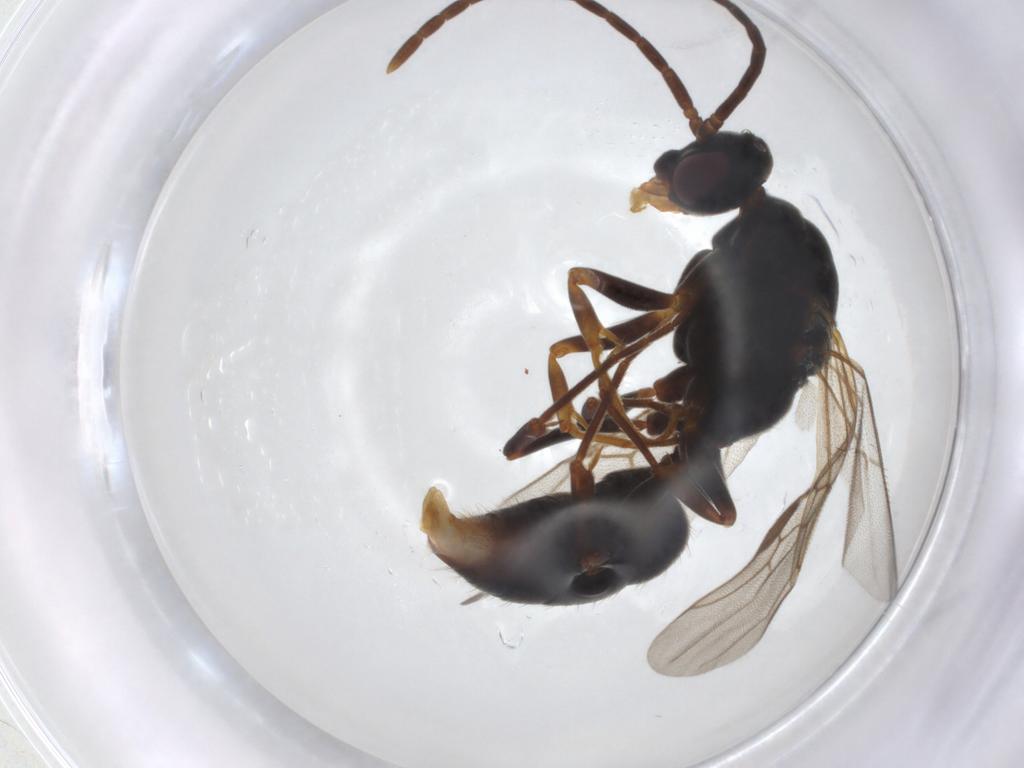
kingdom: Animalia
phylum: Arthropoda
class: Insecta
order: Hymenoptera
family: Formicidae
